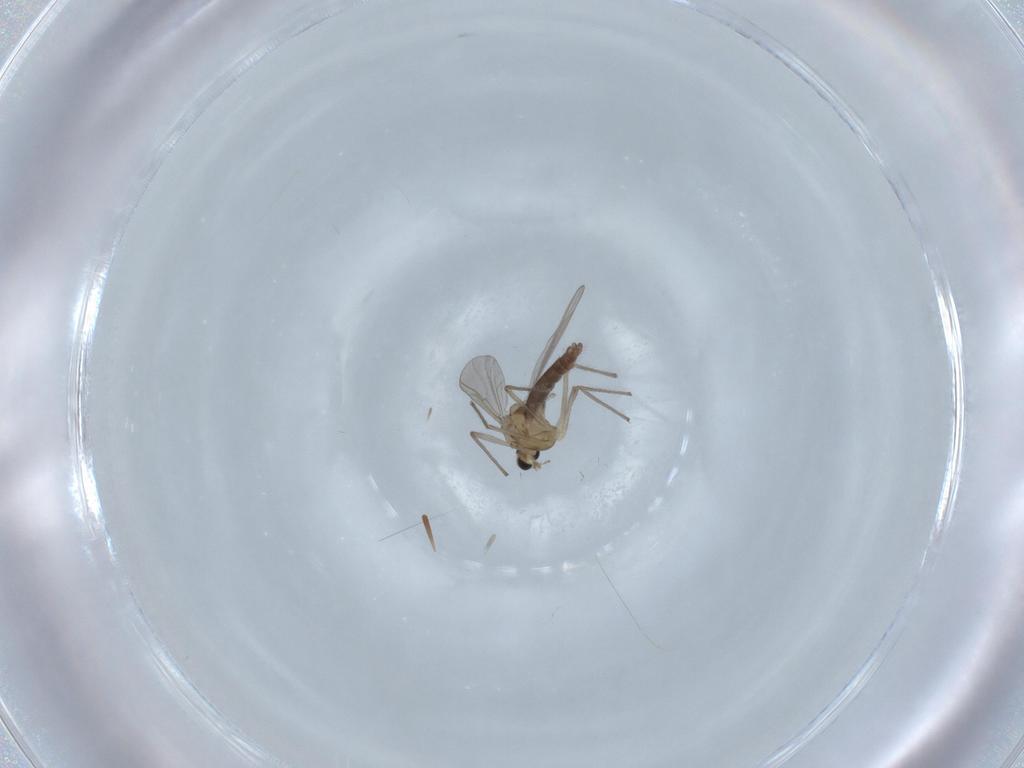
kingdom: Animalia
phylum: Arthropoda
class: Insecta
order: Diptera
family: Chironomidae
